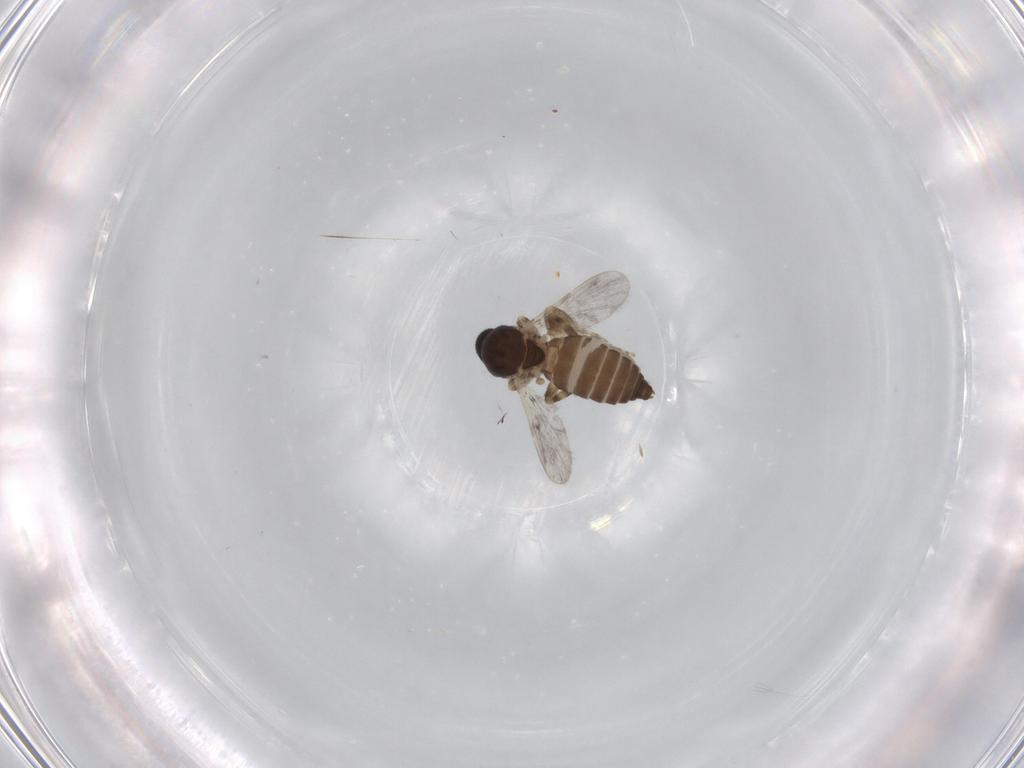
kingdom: Animalia
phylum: Arthropoda
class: Insecta
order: Diptera
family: Ceratopogonidae
